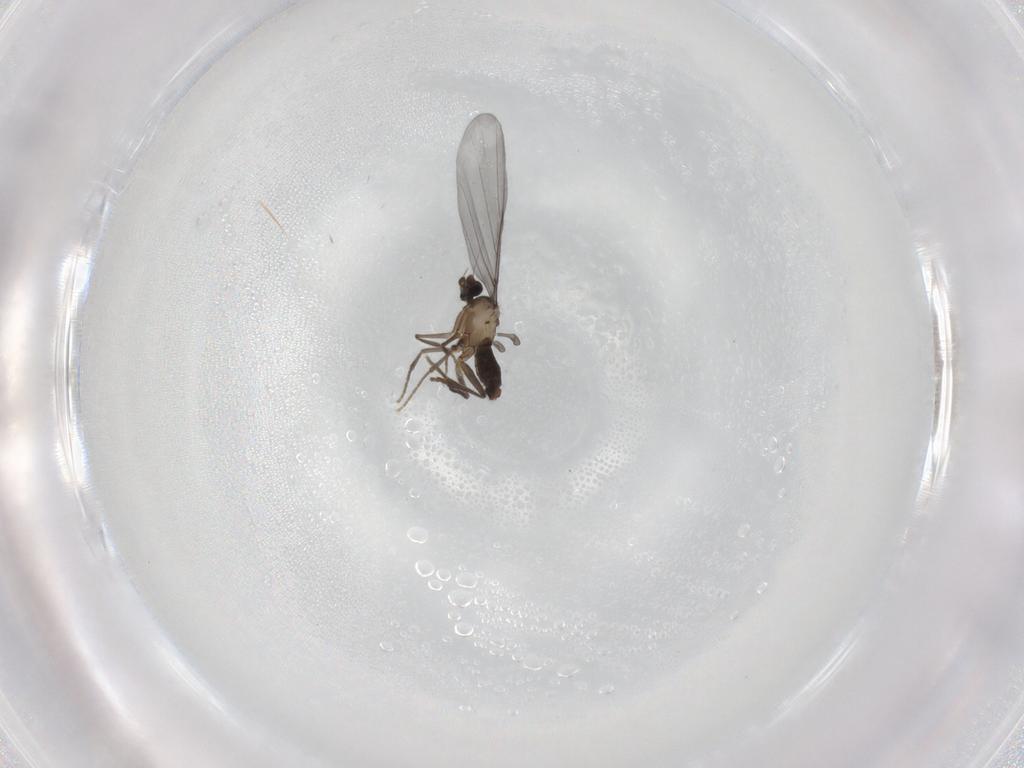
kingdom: Animalia
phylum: Arthropoda
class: Insecta
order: Diptera
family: Phoridae
